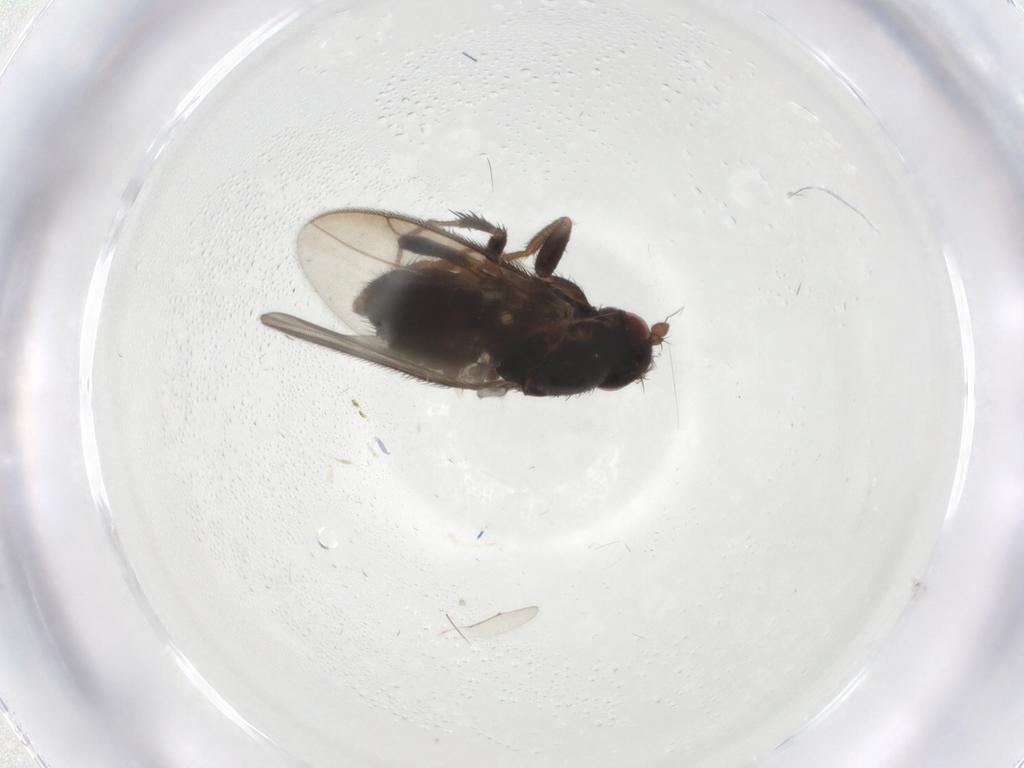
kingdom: Animalia
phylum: Arthropoda
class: Insecta
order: Diptera
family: Sphaeroceridae
